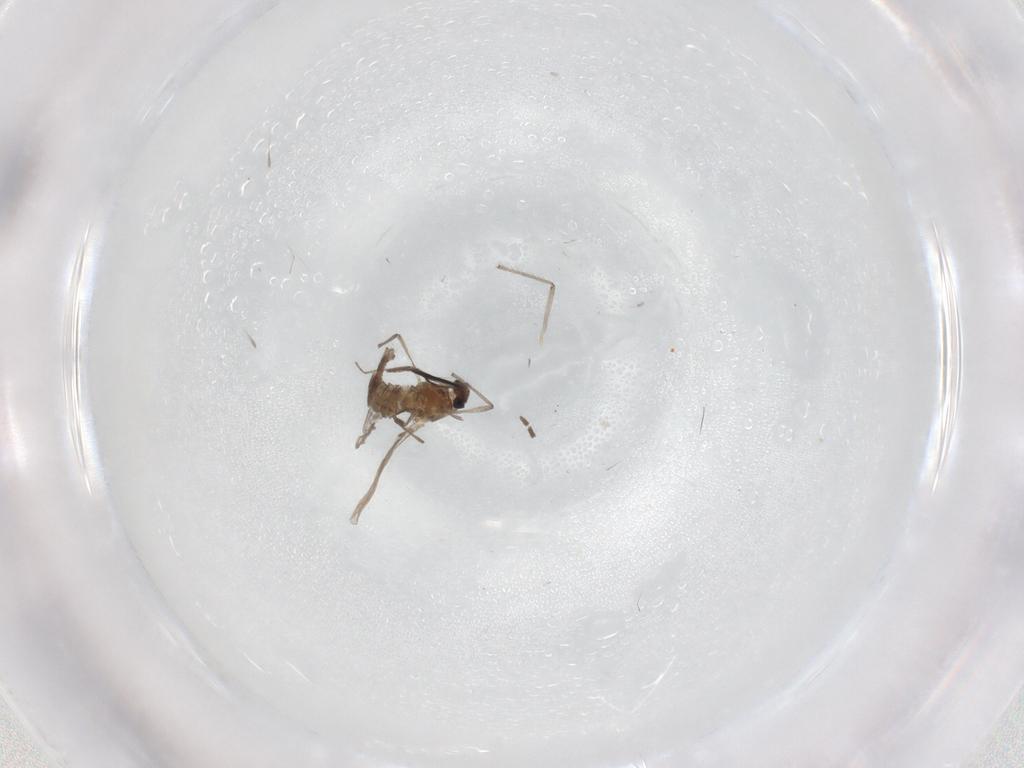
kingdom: Animalia
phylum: Arthropoda
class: Insecta
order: Diptera
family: Chironomidae
